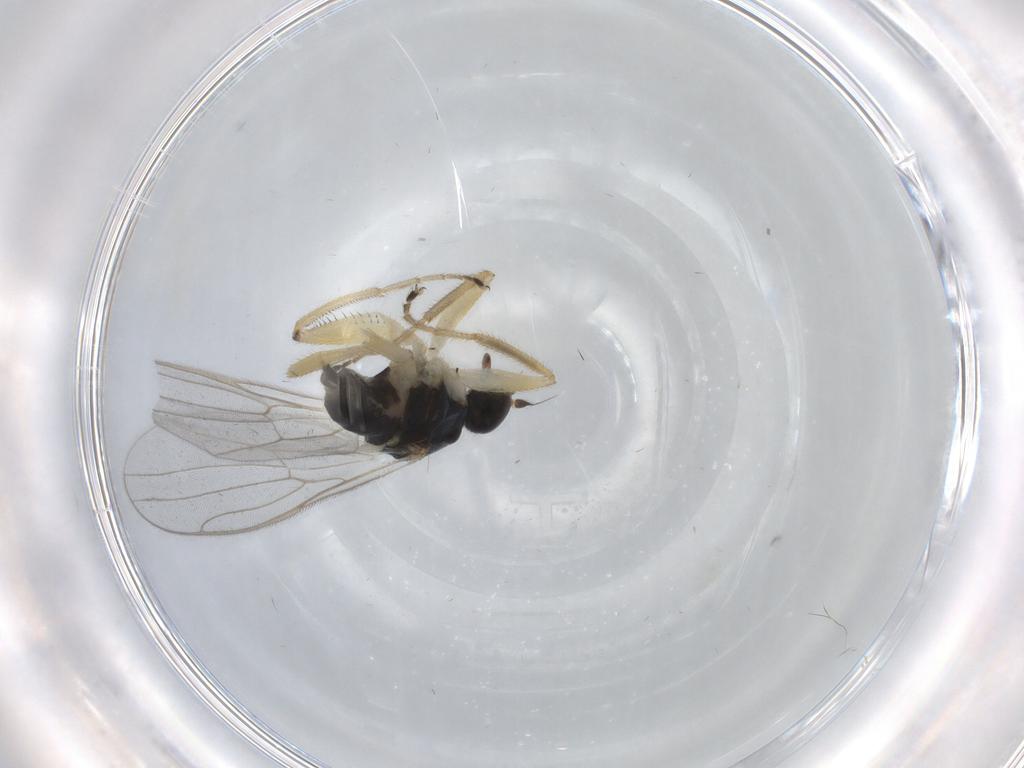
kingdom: Animalia
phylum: Arthropoda
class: Insecta
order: Diptera
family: Hybotidae
